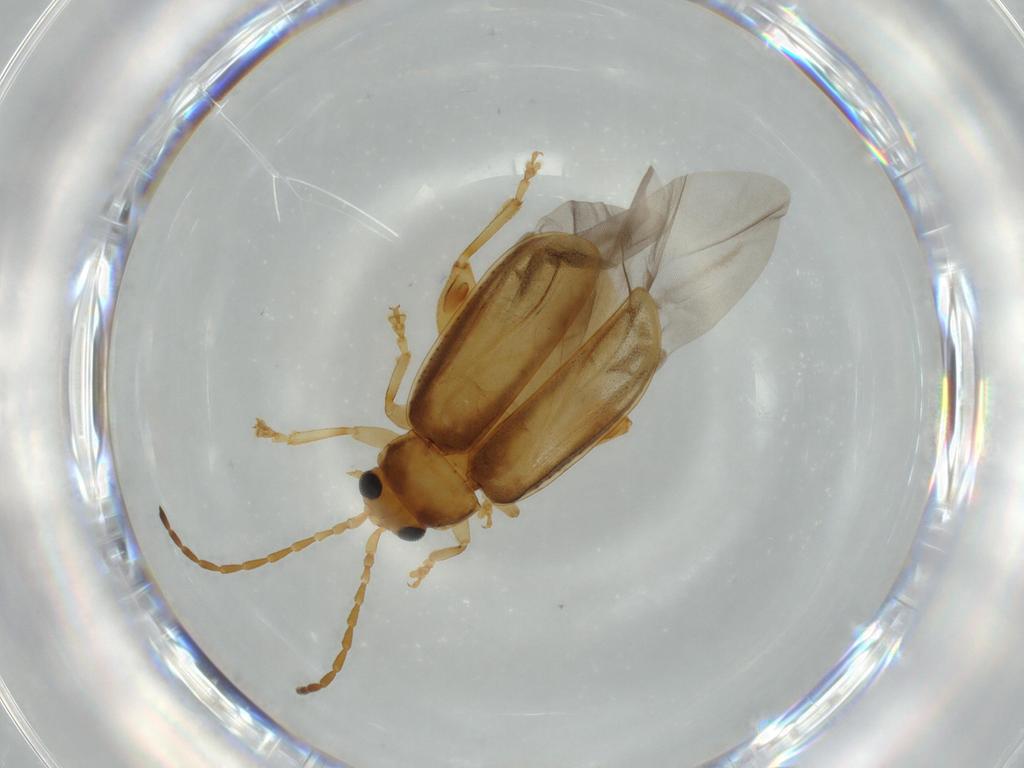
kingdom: Animalia
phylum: Arthropoda
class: Insecta
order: Coleoptera
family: Chrysomelidae
